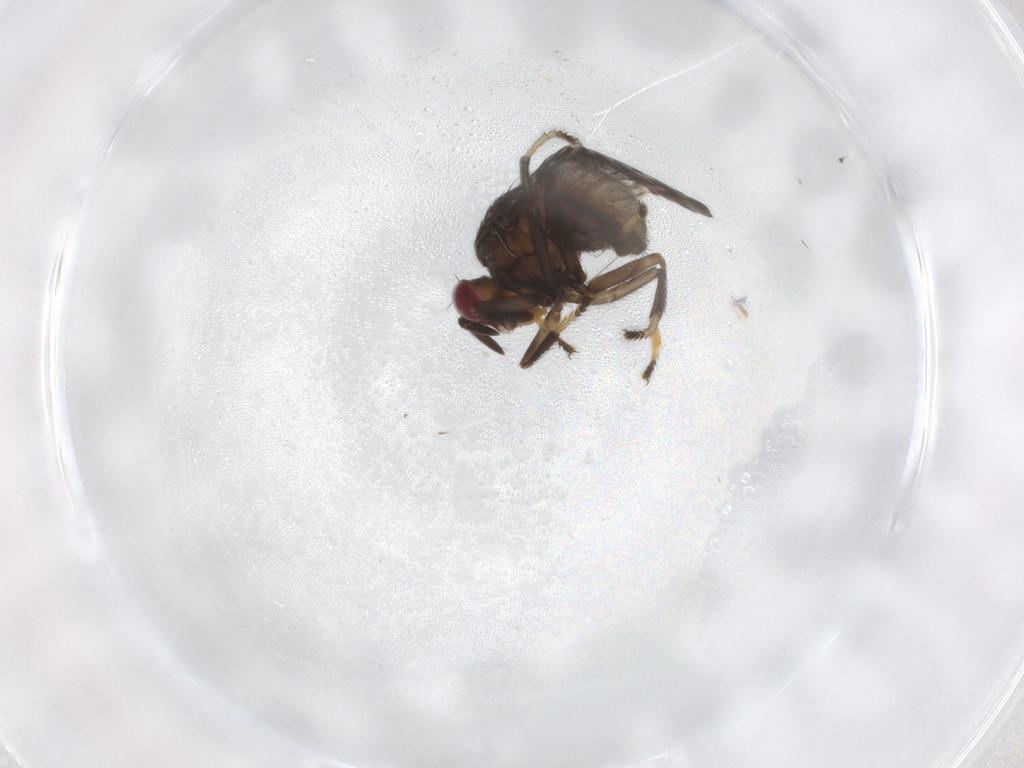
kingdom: Animalia
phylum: Arthropoda
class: Insecta
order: Diptera
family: Ephydridae
